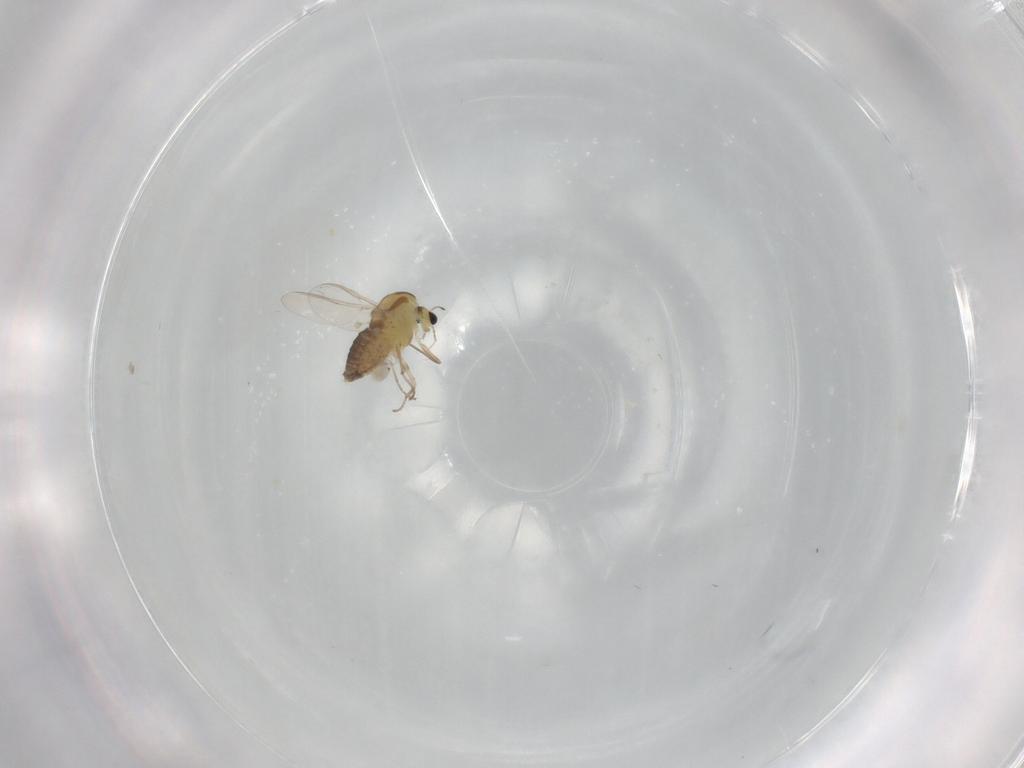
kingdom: Animalia
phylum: Arthropoda
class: Insecta
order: Diptera
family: Chironomidae
